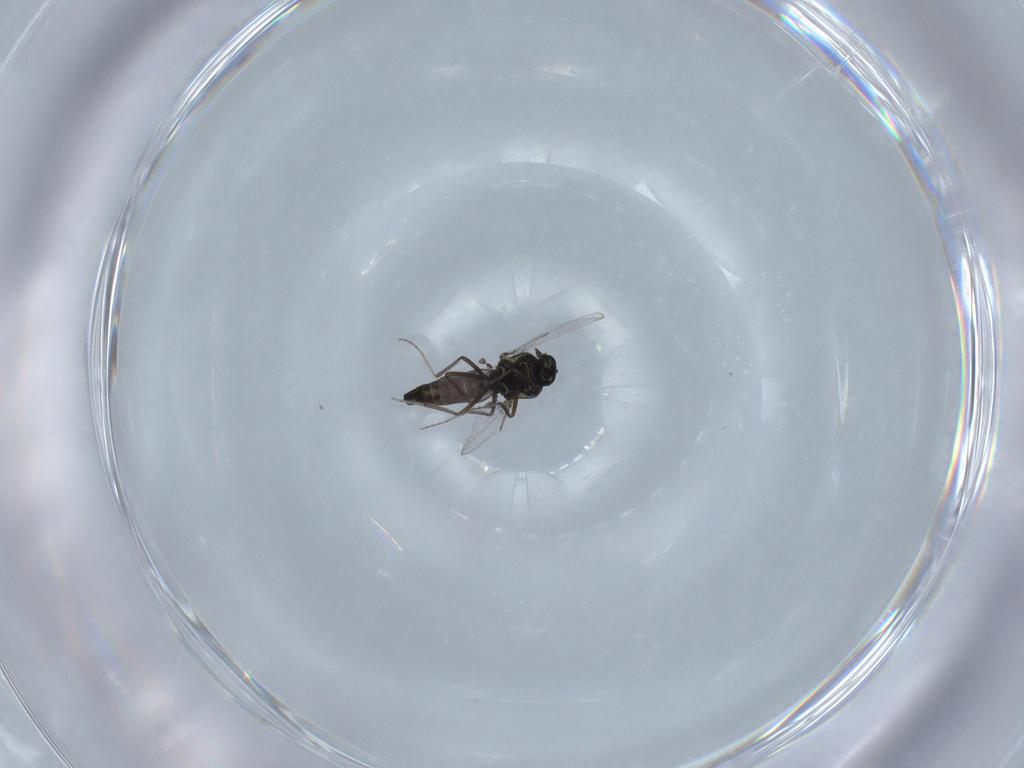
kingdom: Animalia
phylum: Arthropoda
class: Insecta
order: Diptera
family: Ceratopogonidae
